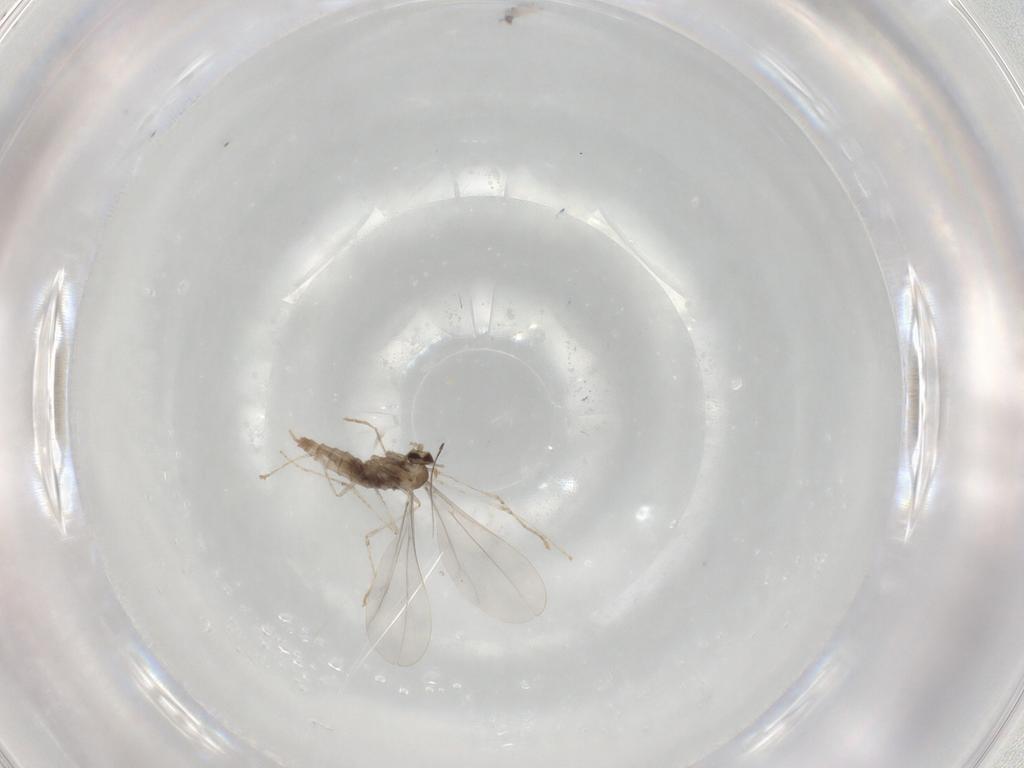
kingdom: Animalia
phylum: Arthropoda
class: Insecta
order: Diptera
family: Cecidomyiidae
